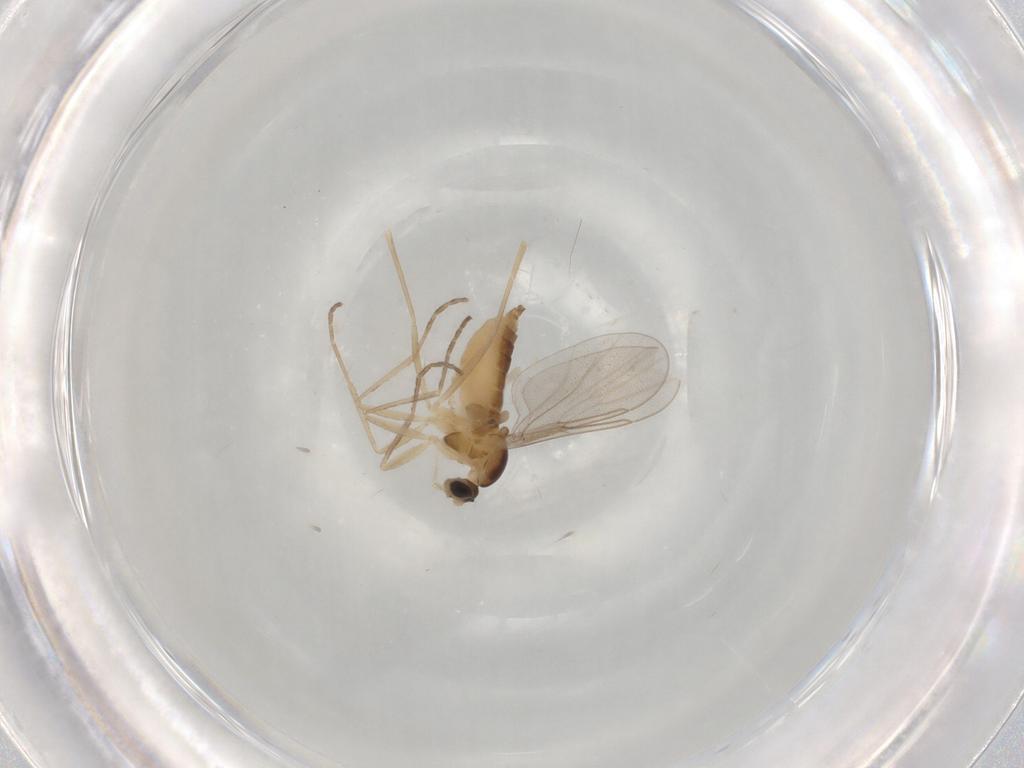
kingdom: Animalia
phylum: Arthropoda
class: Insecta
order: Diptera
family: Cecidomyiidae
